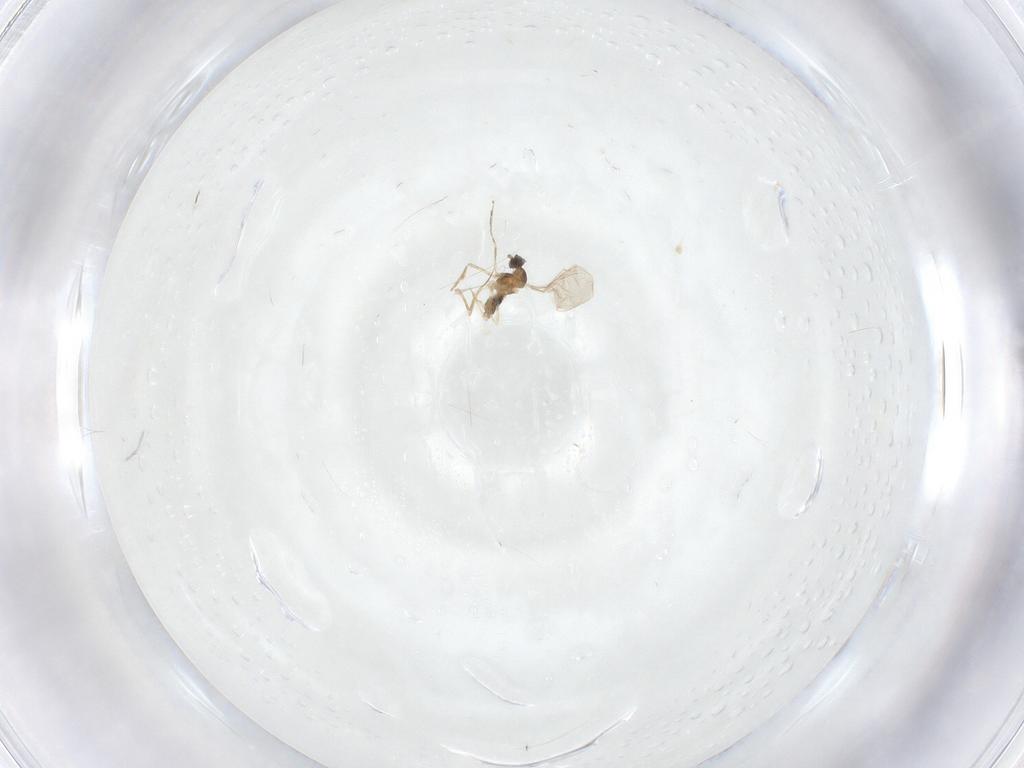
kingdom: Animalia
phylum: Arthropoda
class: Insecta
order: Diptera
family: Cecidomyiidae
